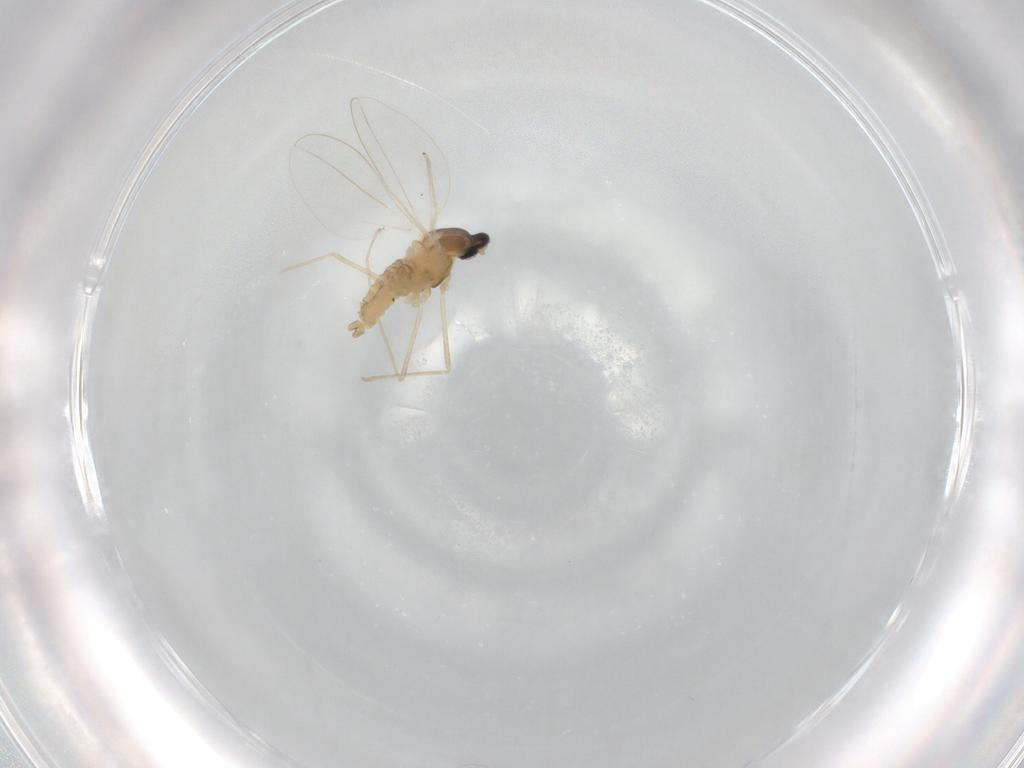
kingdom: Animalia
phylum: Arthropoda
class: Insecta
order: Diptera
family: Cecidomyiidae
